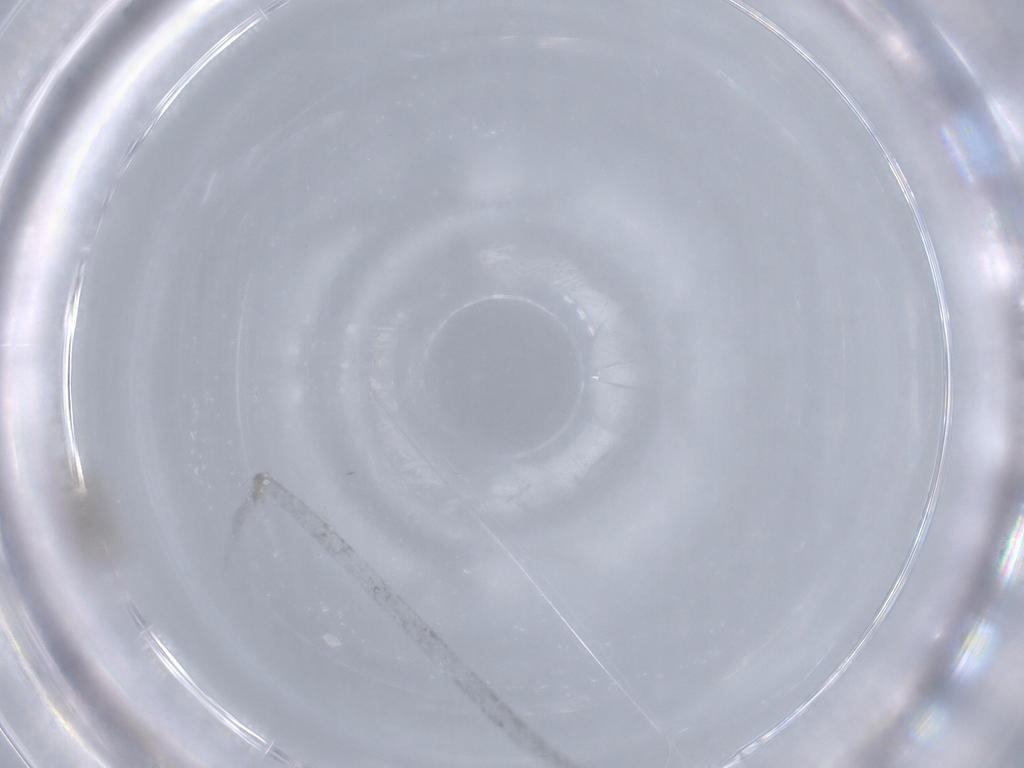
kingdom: Animalia
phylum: Arthropoda
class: Insecta
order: Diptera
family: Cecidomyiidae
